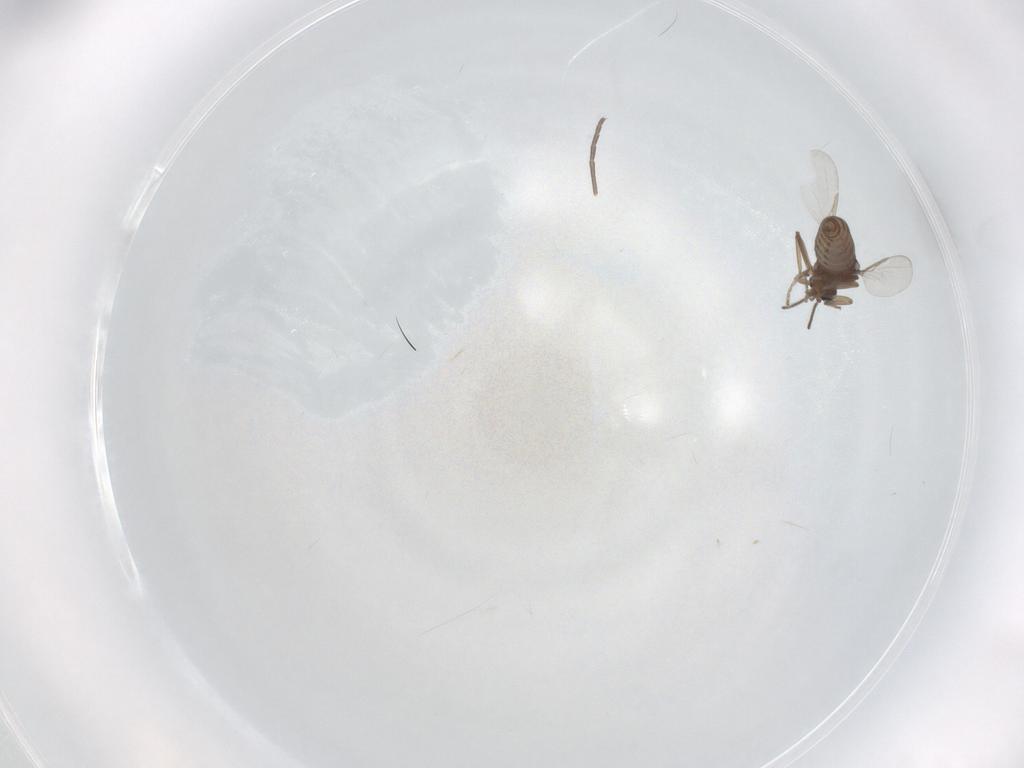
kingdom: Animalia
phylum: Arthropoda
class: Insecta
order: Diptera
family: Ceratopogonidae
